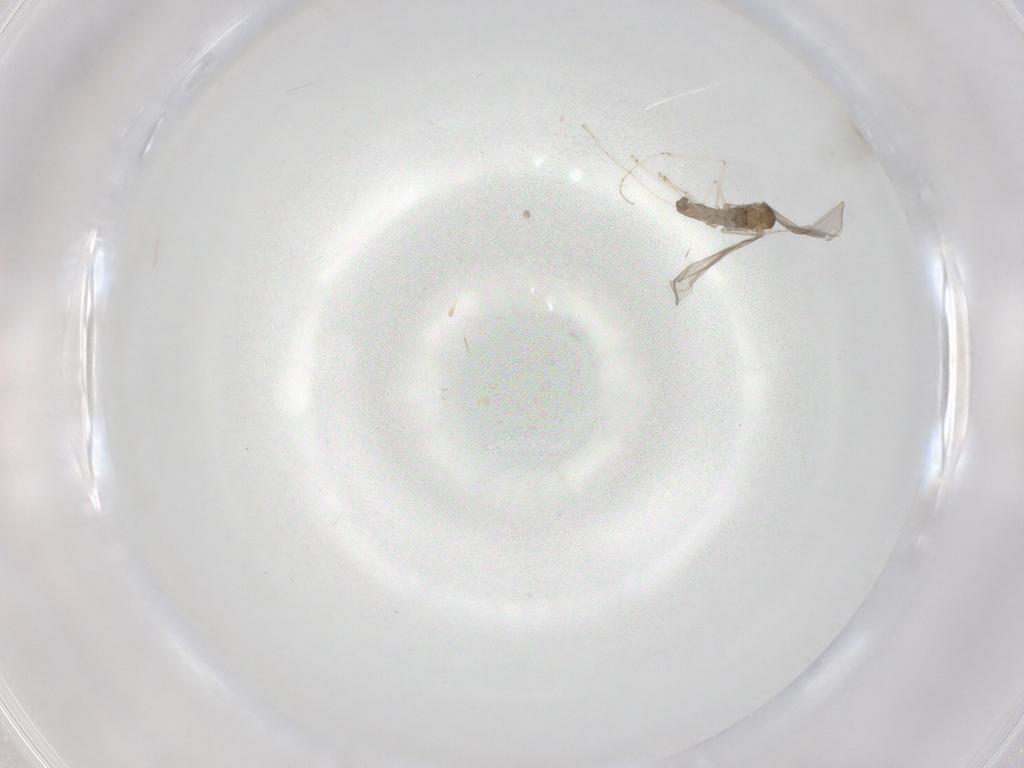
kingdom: Animalia
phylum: Arthropoda
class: Insecta
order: Diptera
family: Cecidomyiidae
